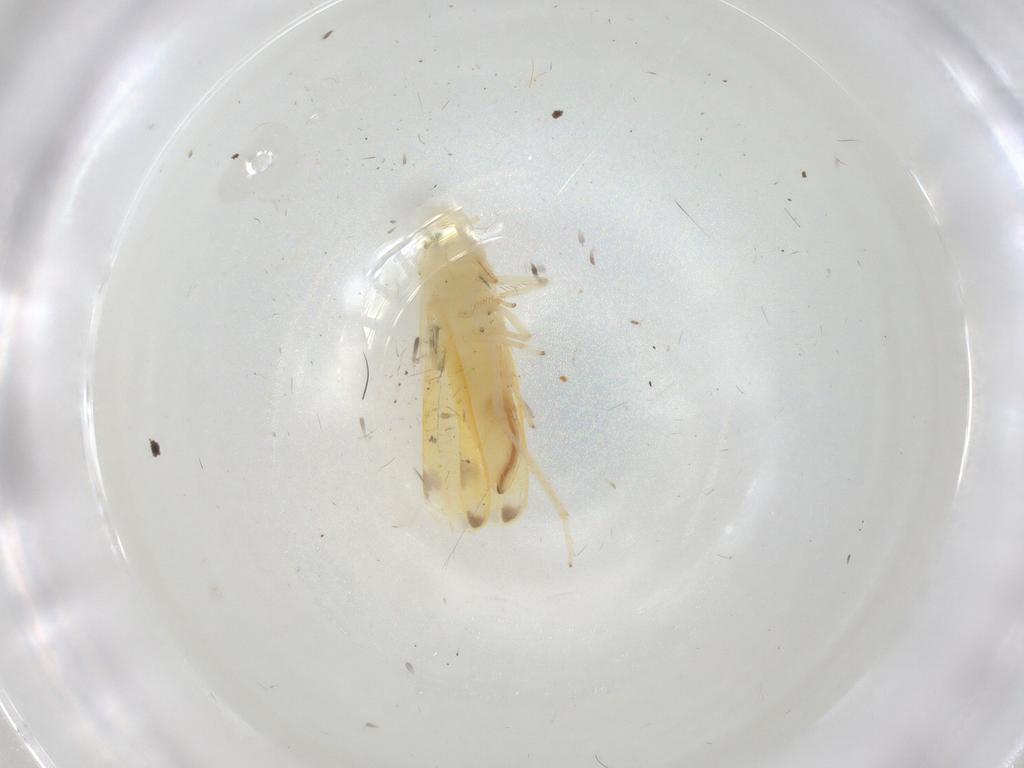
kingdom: Animalia
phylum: Arthropoda
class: Insecta
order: Hemiptera
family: Cicadellidae
